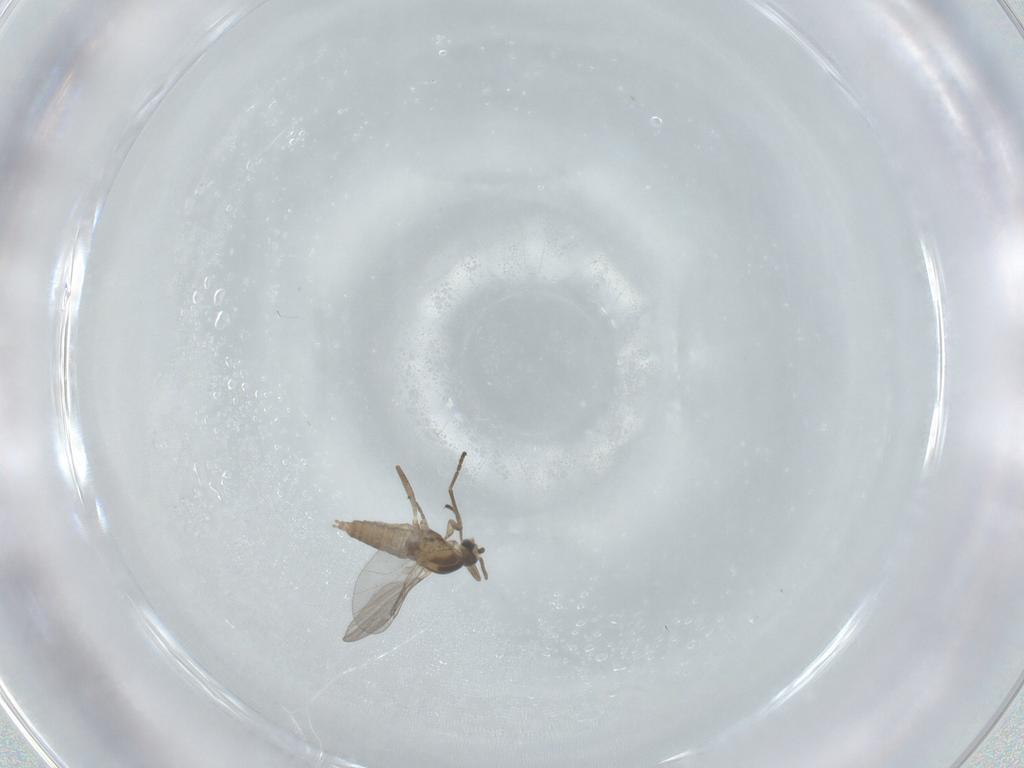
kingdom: Animalia
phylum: Arthropoda
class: Insecta
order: Diptera
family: Cecidomyiidae
